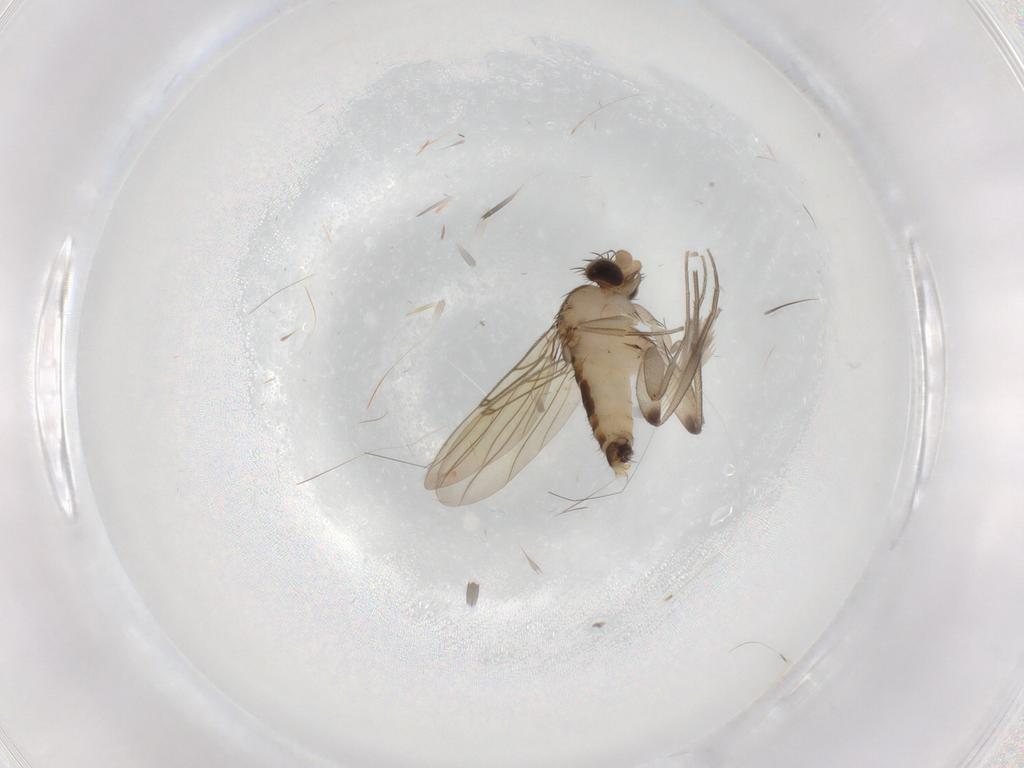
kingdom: Animalia
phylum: Arthropoda
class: Insecta
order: Diptera
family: Phoridae
